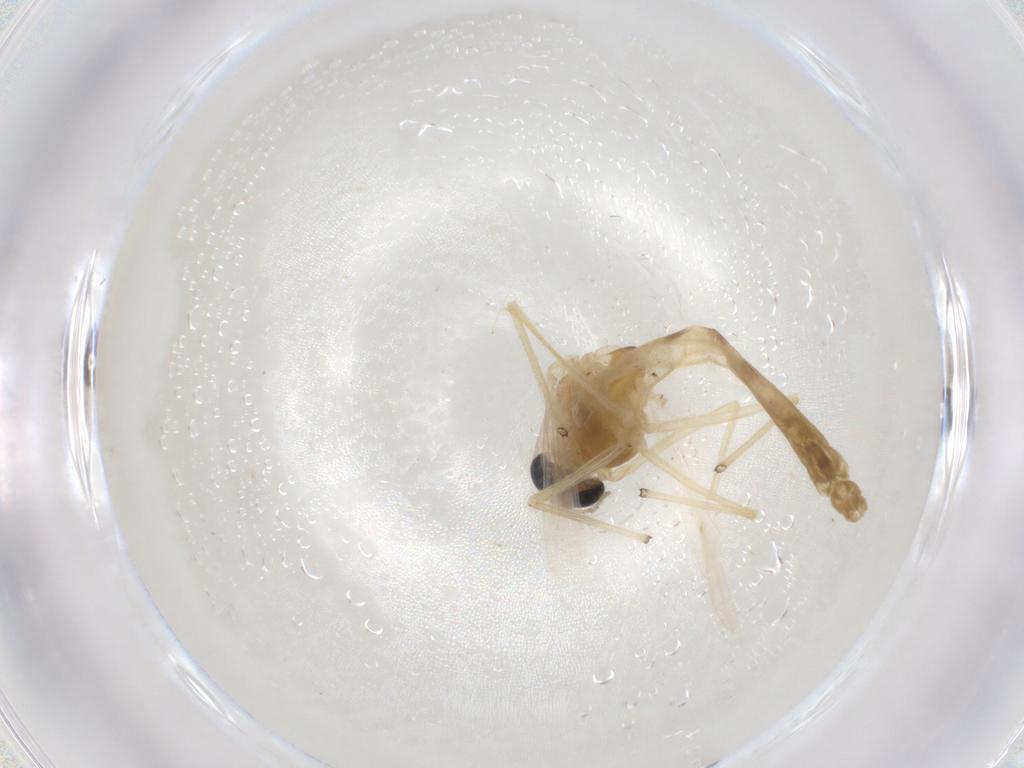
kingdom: Animalia
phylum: Arthropoda
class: Insecta
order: Diptera
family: Chironomidae
